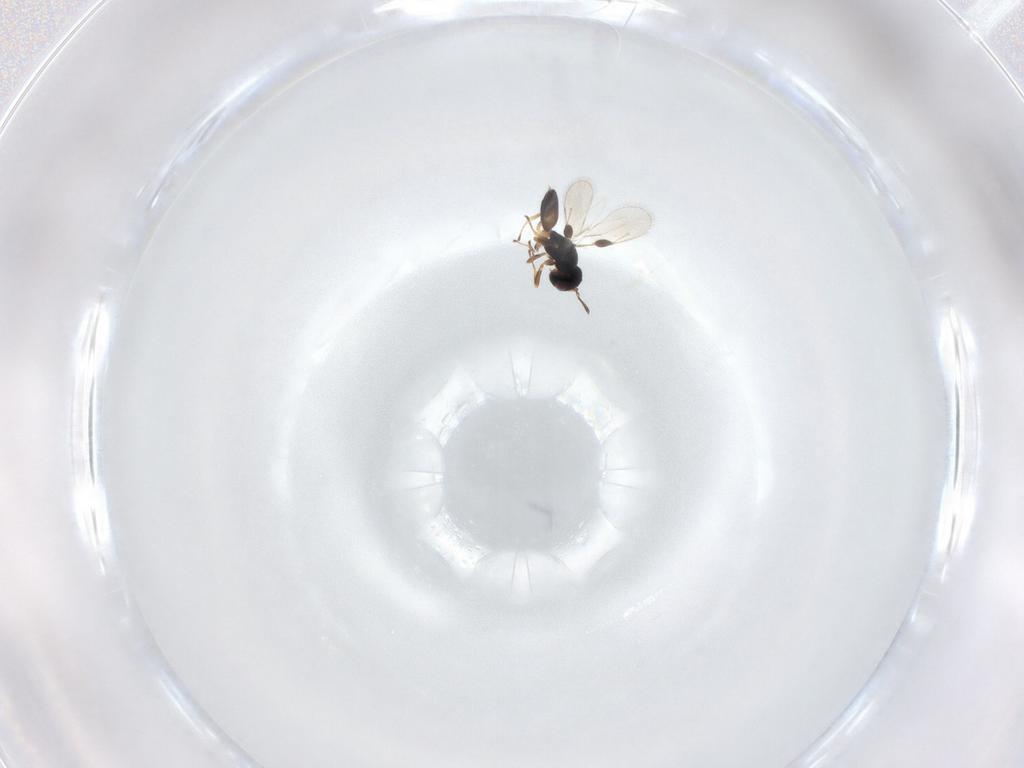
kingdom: Animalia
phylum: Arthropoda
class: Insecta
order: Hymenoptera
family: Pteromalidae
